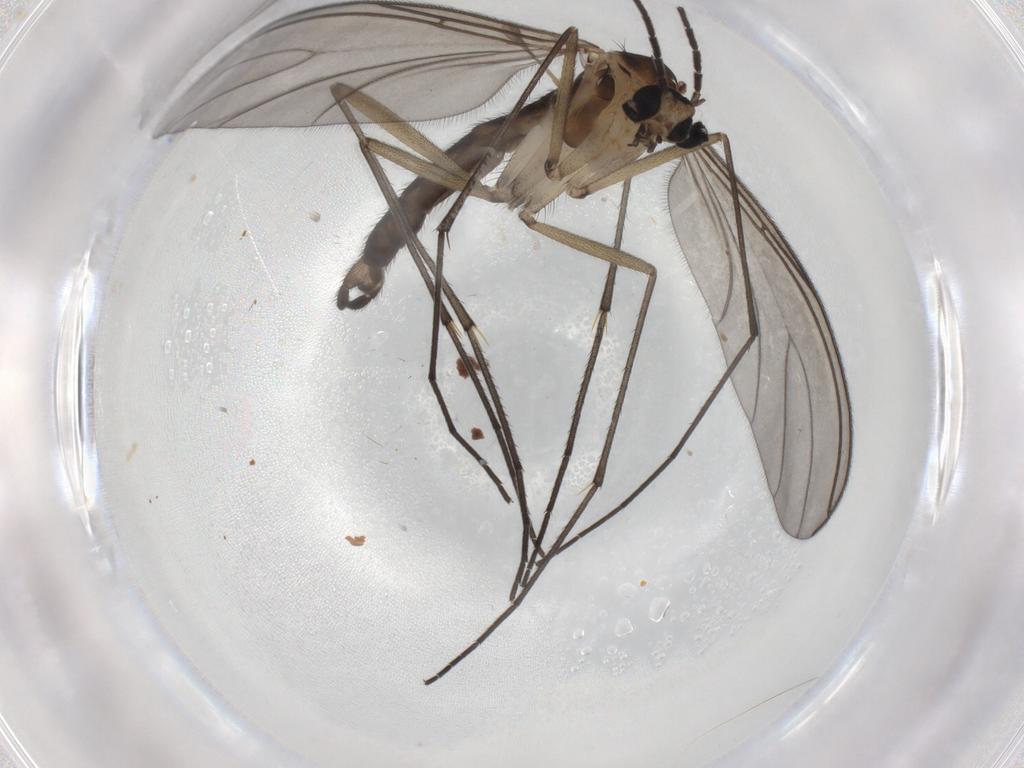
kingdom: Animalia
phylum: Arthropoda
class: Insecta
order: Diptera
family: Sciaridae
